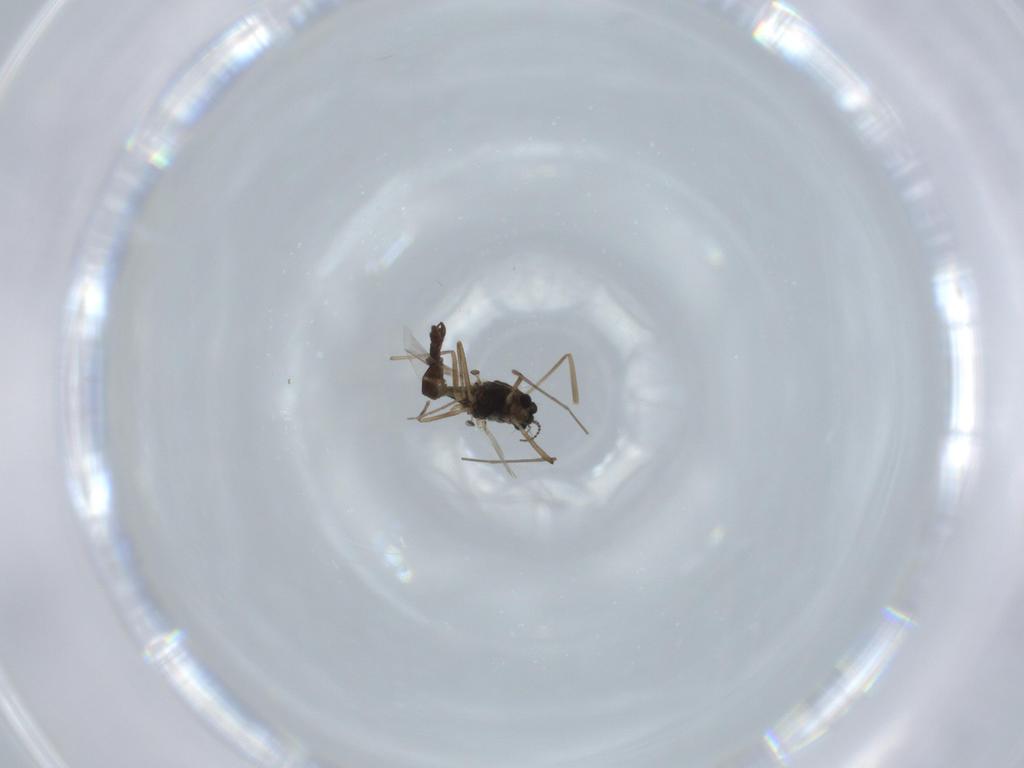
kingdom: Animalia
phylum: Arthropoda
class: Insecta
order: Diptera
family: Chironomidae
